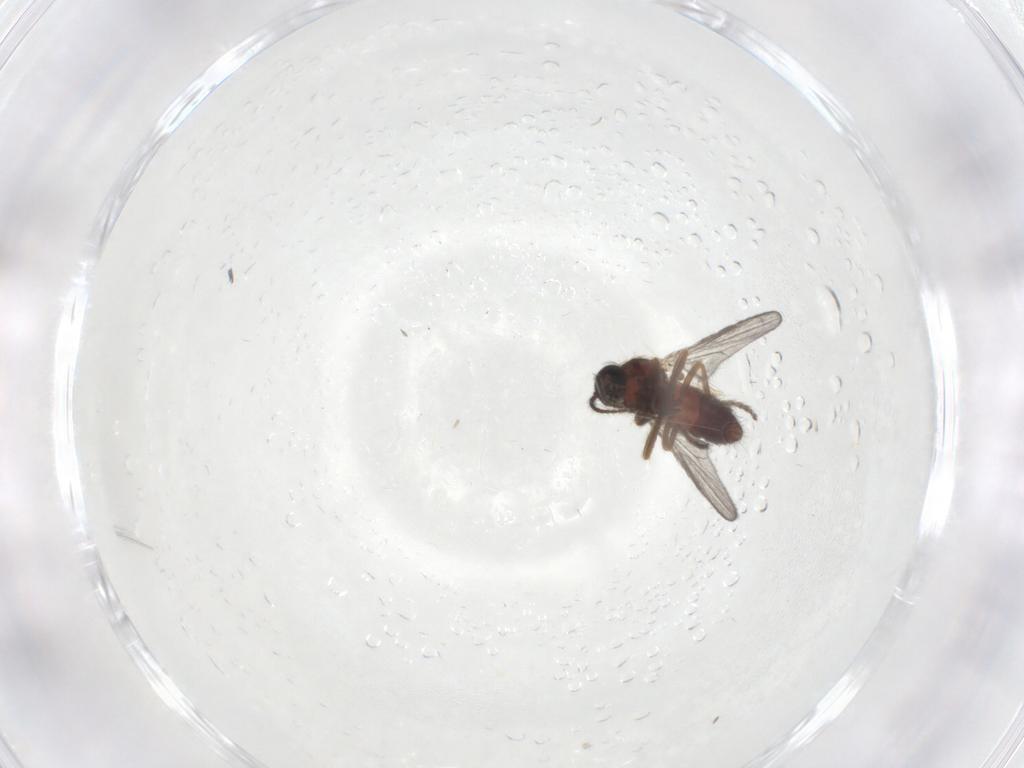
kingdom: Animalia
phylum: Arthropoda
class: Insecta
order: Diptera
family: Ceratopogonidae
